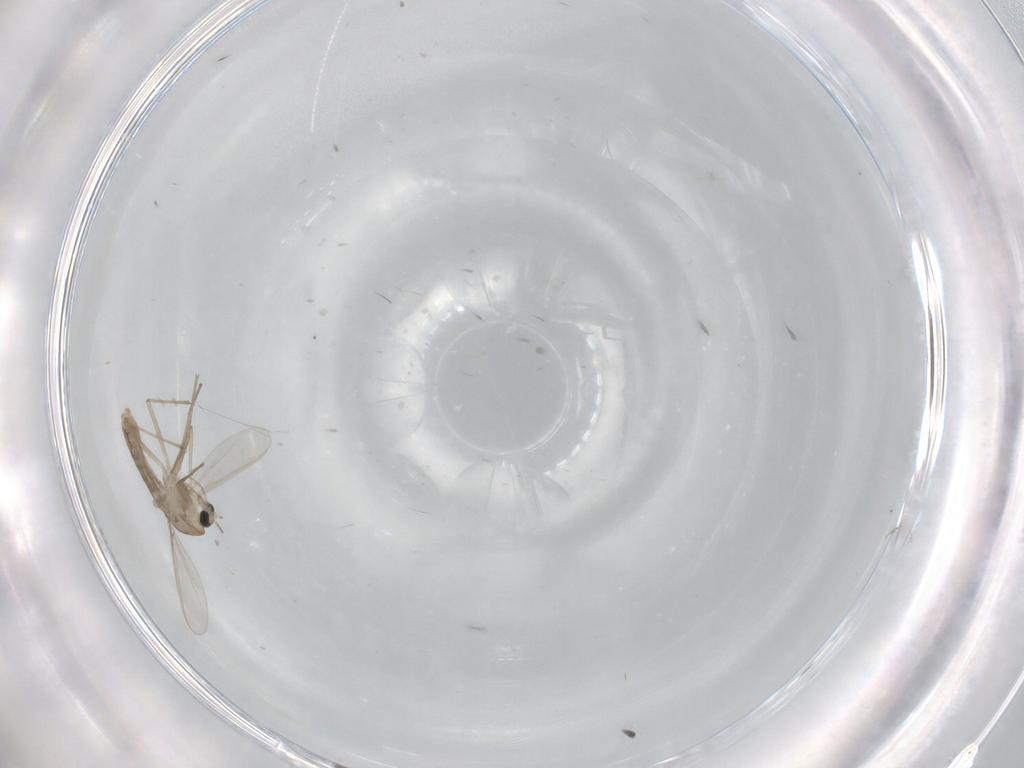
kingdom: Animalia
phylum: Arthropoda
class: Insecta
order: Diptera
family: Chironomidae
